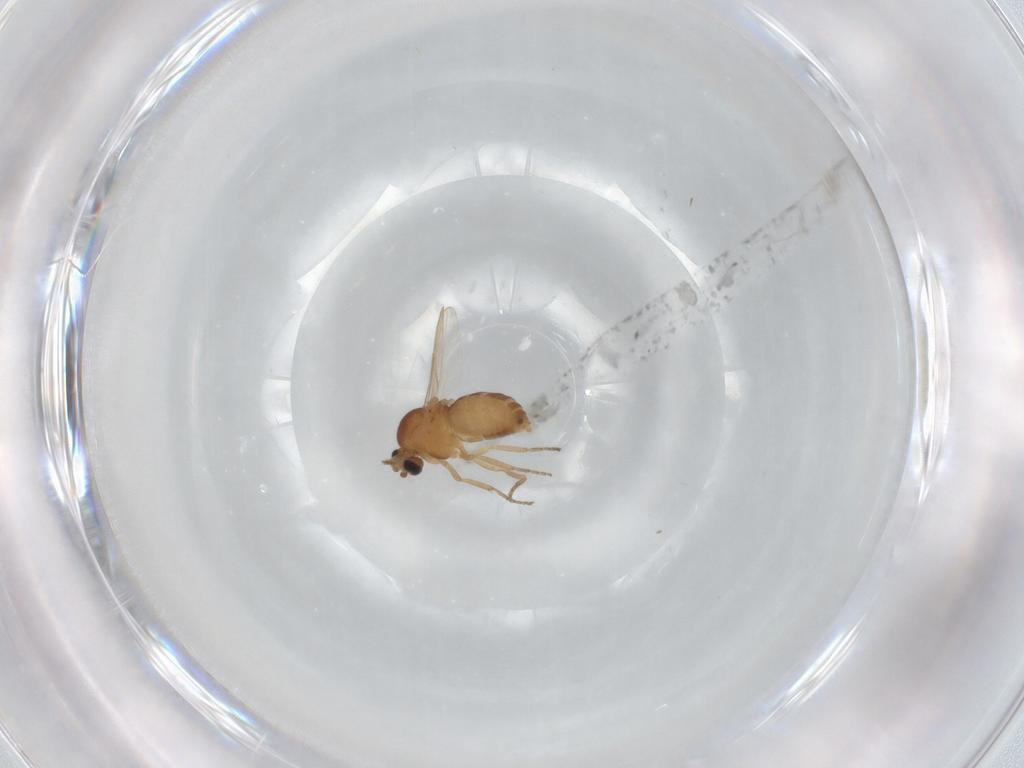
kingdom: Animalia
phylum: Arthropoda
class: Insecta
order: Diptera
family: Ceratopogonidae
